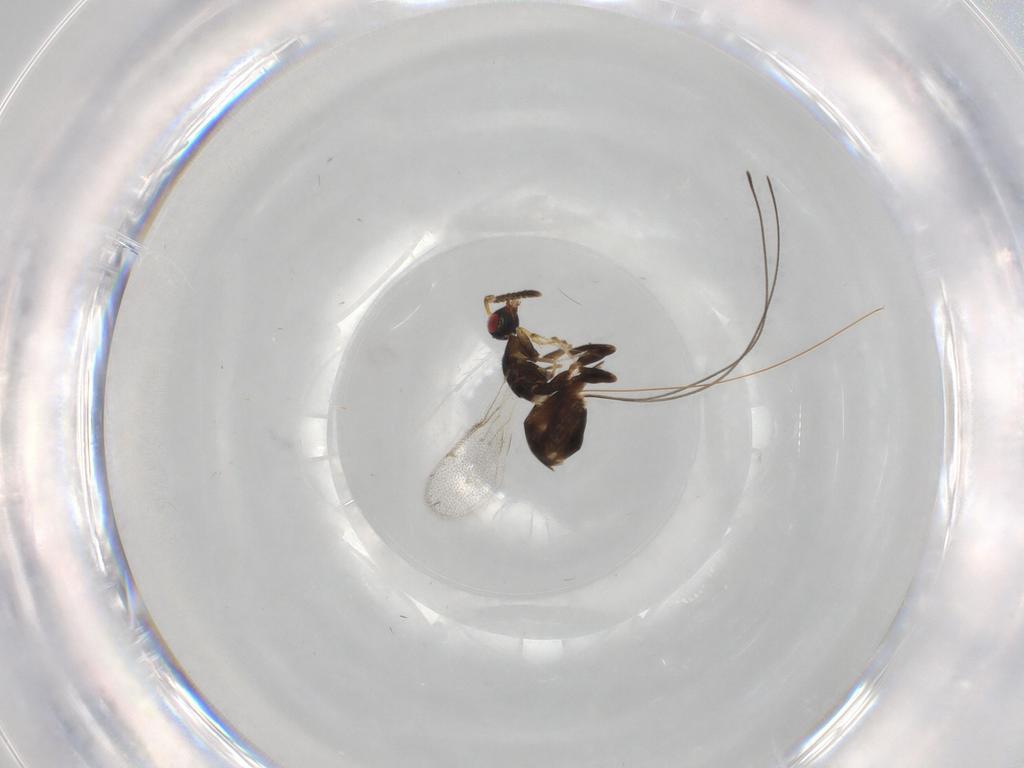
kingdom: Animalia
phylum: Arthropoda
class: Insecta
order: Hymenoptera
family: Torymidae
